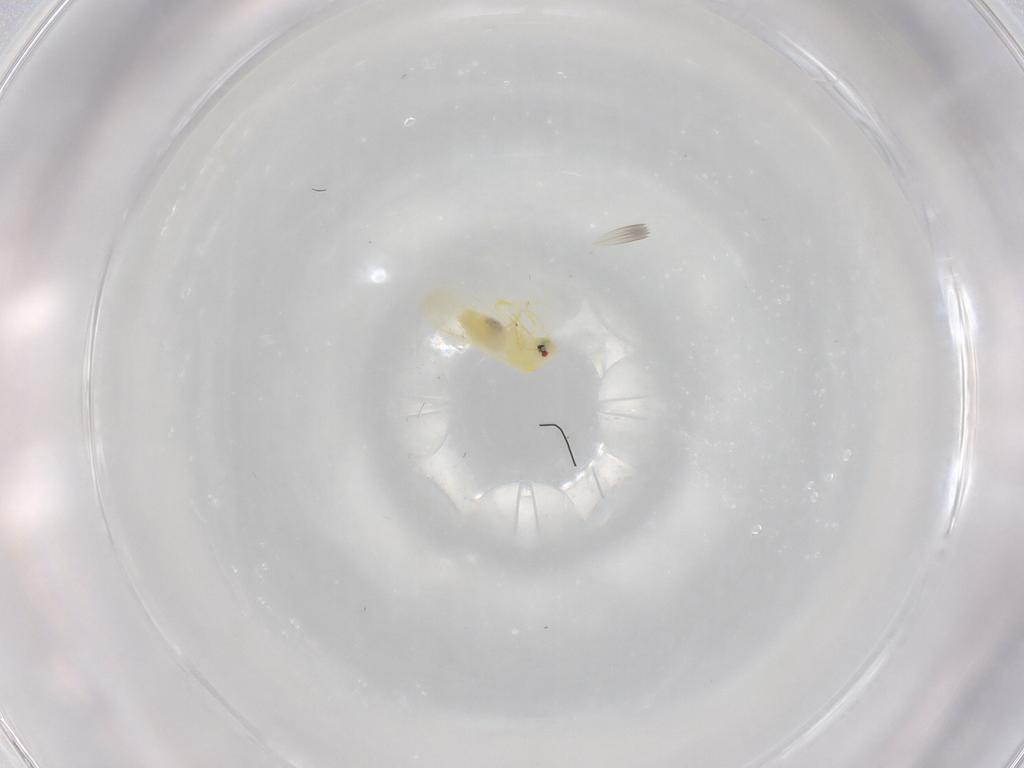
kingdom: Animalia
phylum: Arthropoda
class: Insecta
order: Hemiptera
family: Aleyrodidae
